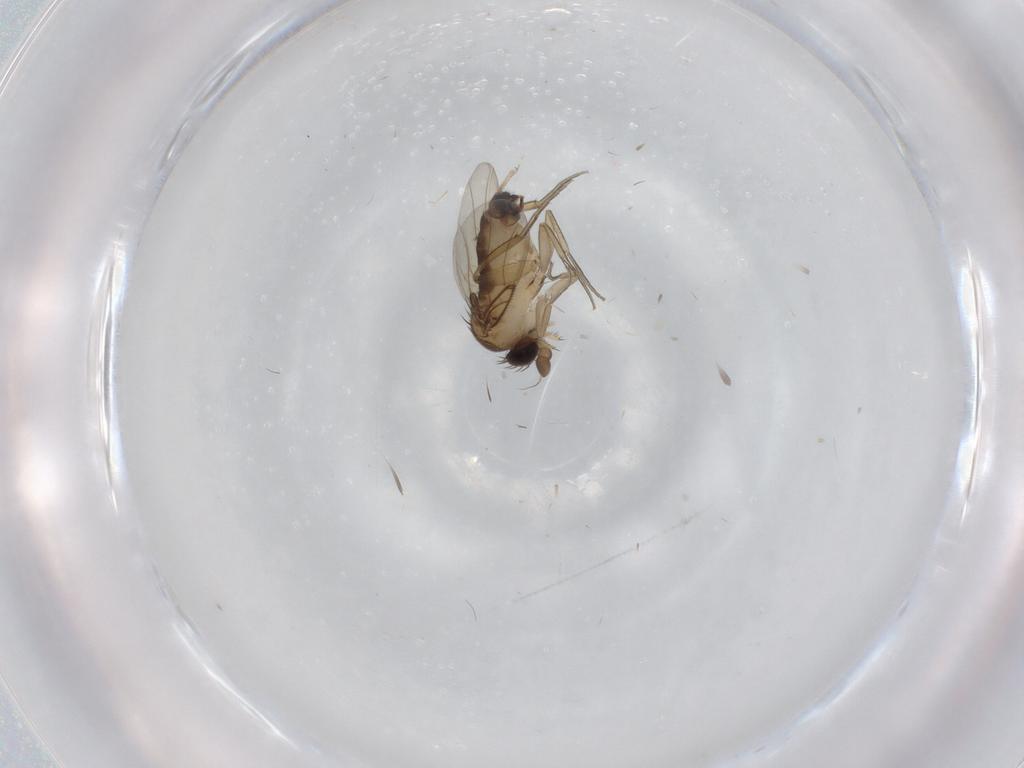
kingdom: Animalia
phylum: Arthropoda
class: Insecta
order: Diptera
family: Phoridae
